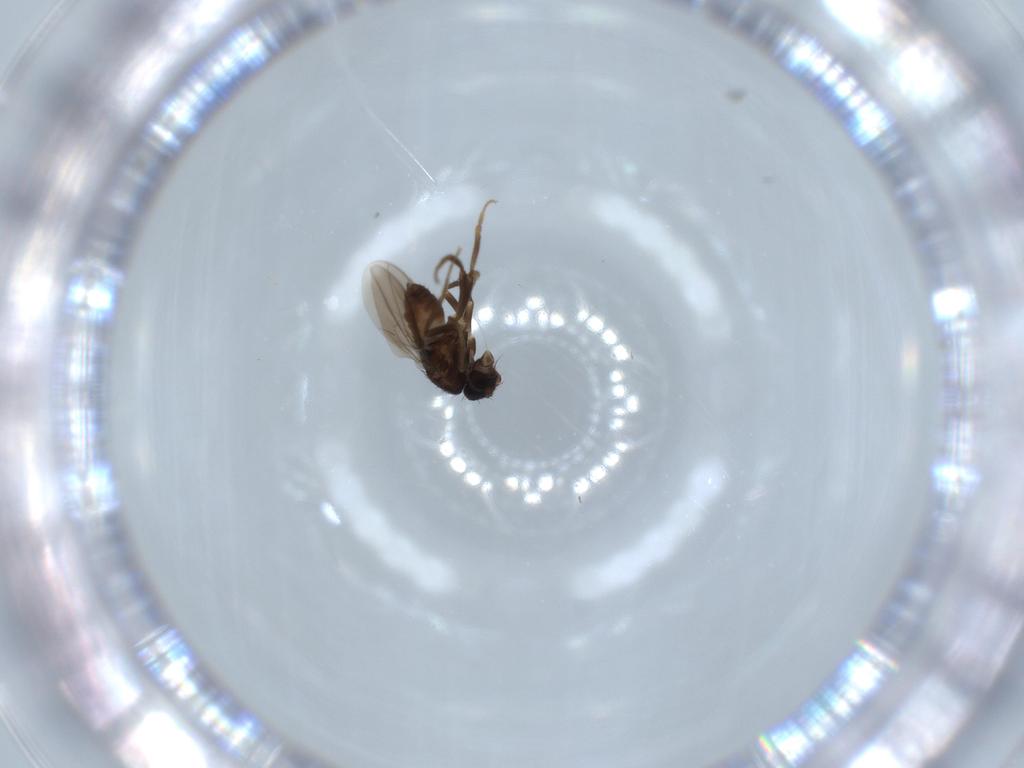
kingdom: Animalia
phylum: Arthropoda
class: Insecta
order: Diptera
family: Sphaeroceridae
